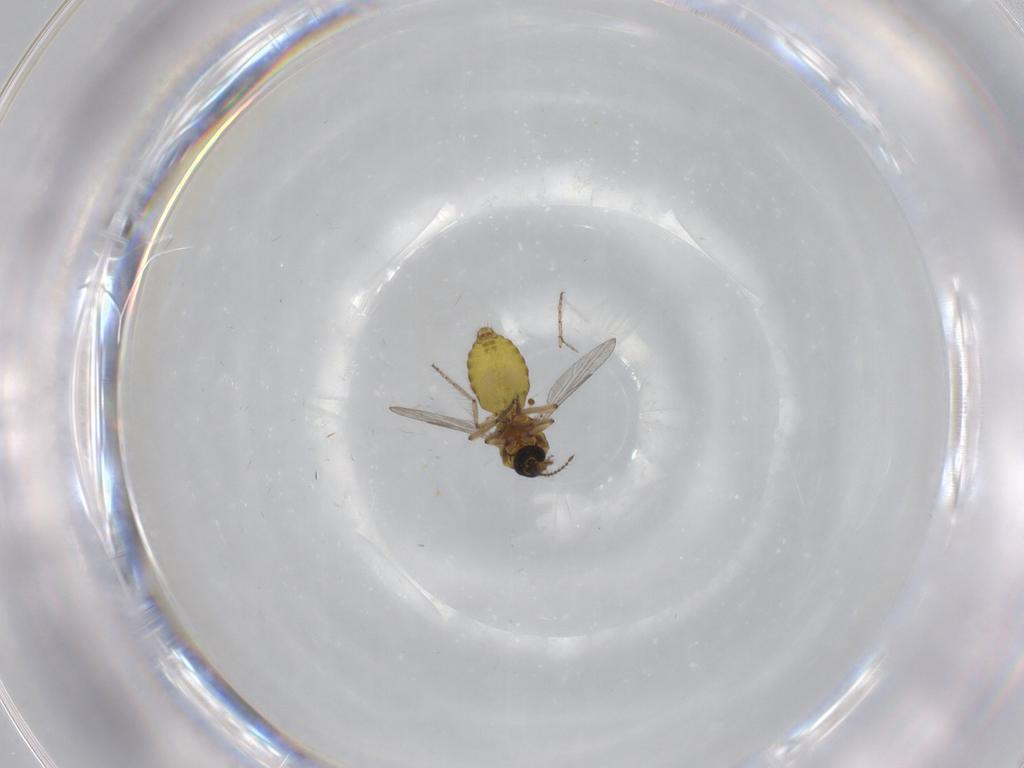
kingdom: Animalia
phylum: Arthropoda
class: Insecta
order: Diptera
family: Ceratopogonidae
